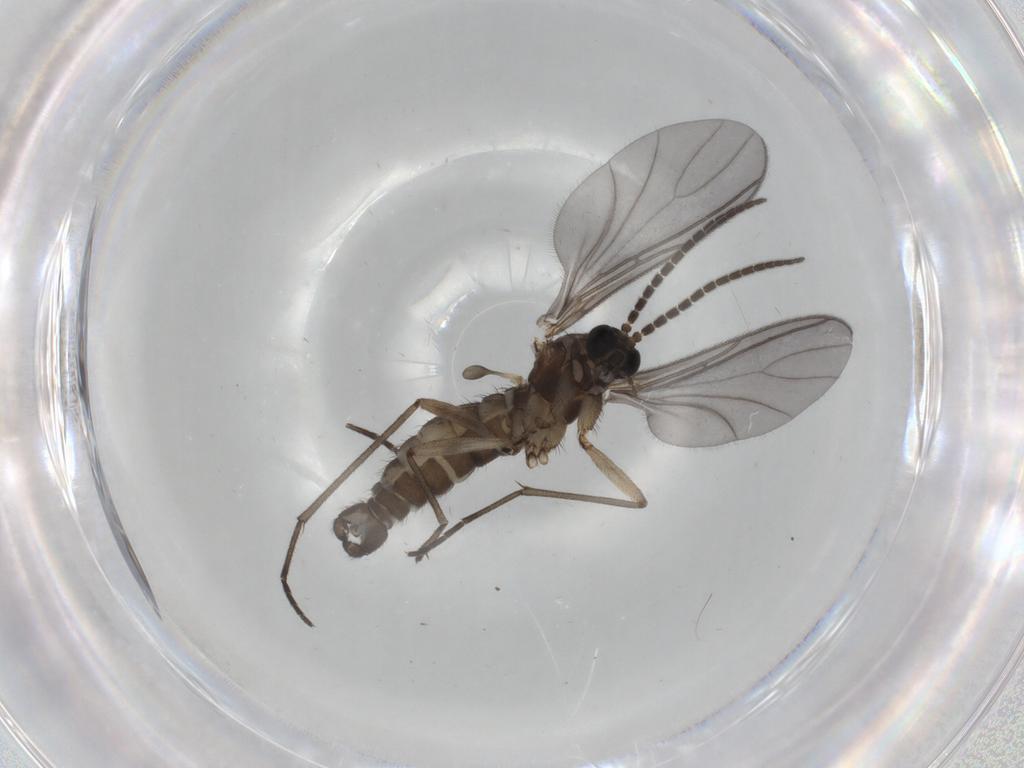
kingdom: Animalia
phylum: Arthropoda
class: Insecta
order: Diptera
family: Sciaridae
